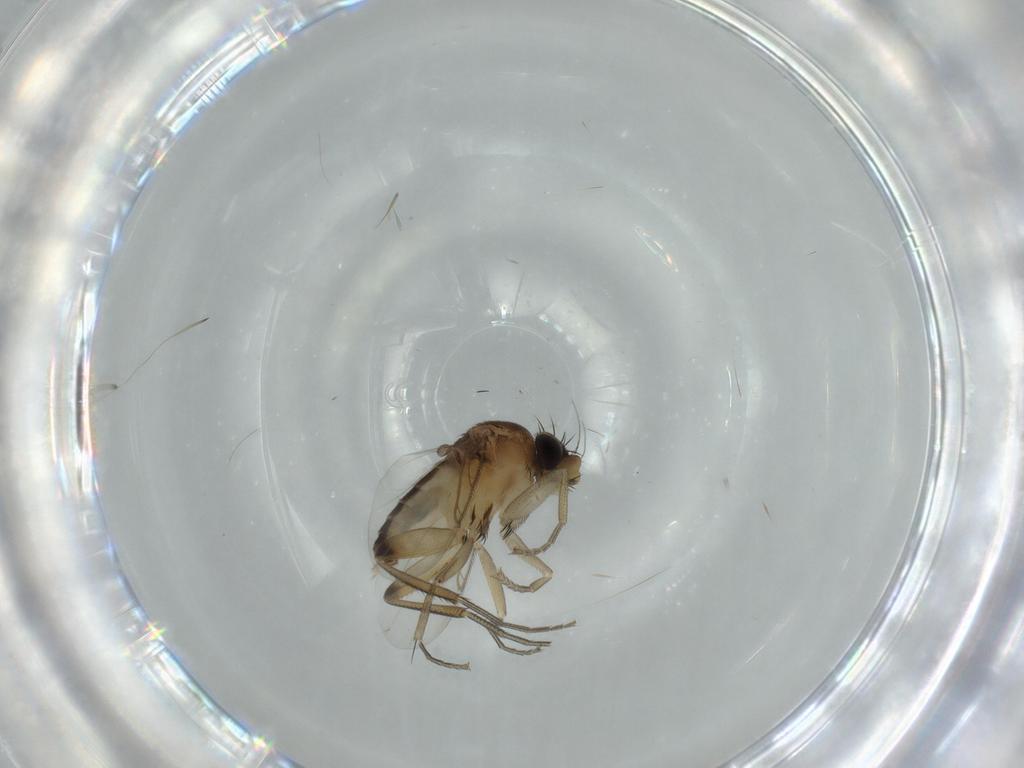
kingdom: Animalia
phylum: Arthropoda
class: Insecta
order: Diptera
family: Phoridae
